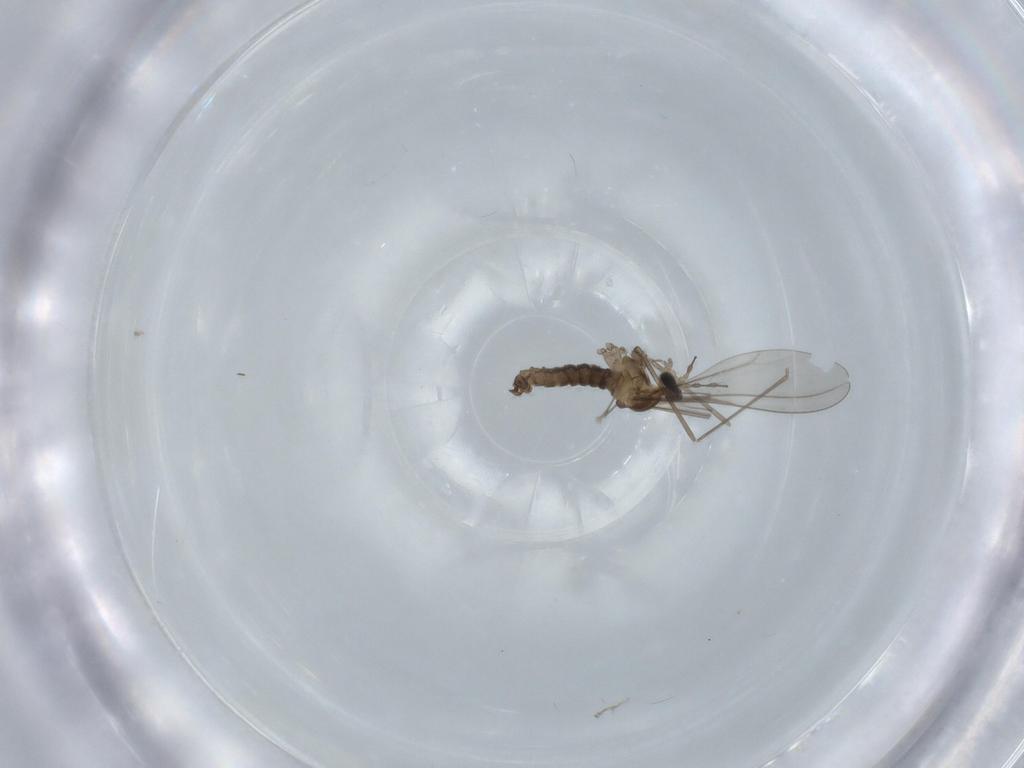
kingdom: Animalia
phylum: Arthropoda
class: Insecta
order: Diptera
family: Cecidomyiidae
